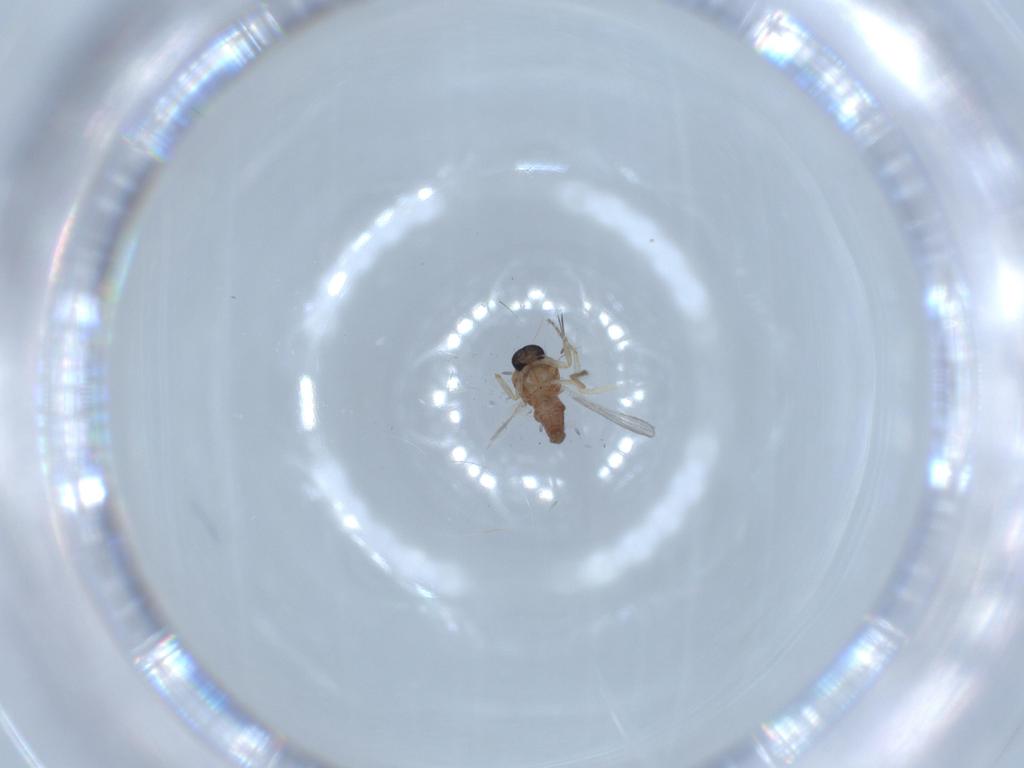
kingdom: Animalia
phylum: Arthropoda
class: Insecta
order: Diptera
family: Ceratopogonidae
